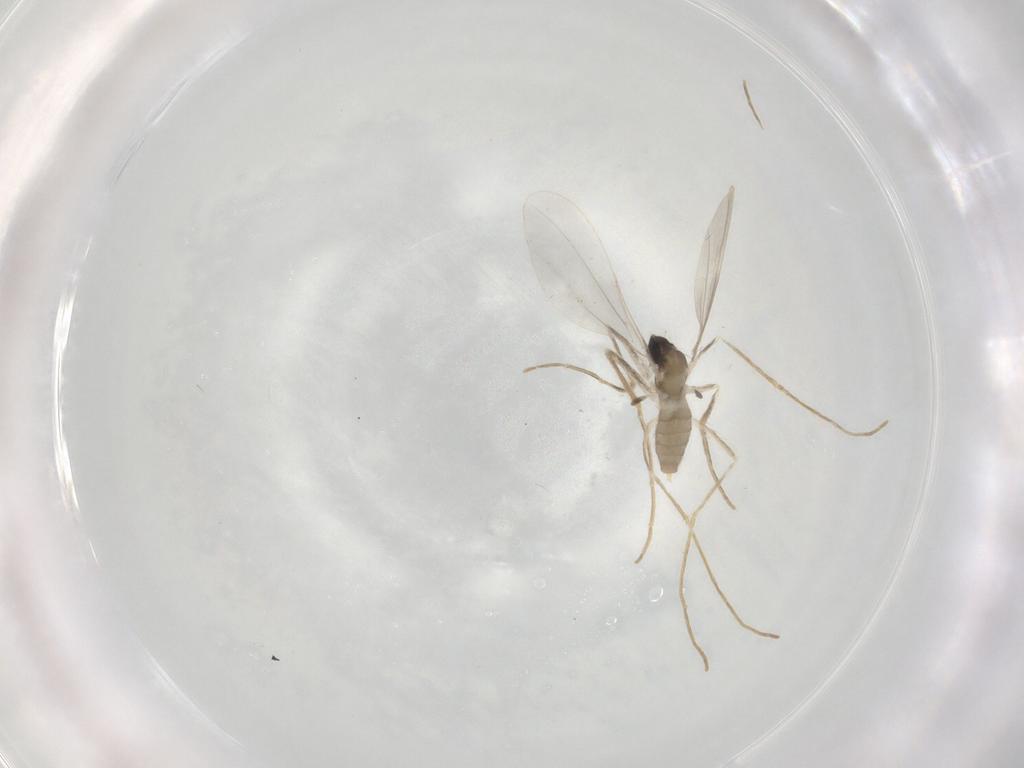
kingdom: Animalia
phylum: Arthropoda
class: Insecta
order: Diptera
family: Cecidomyiidae
